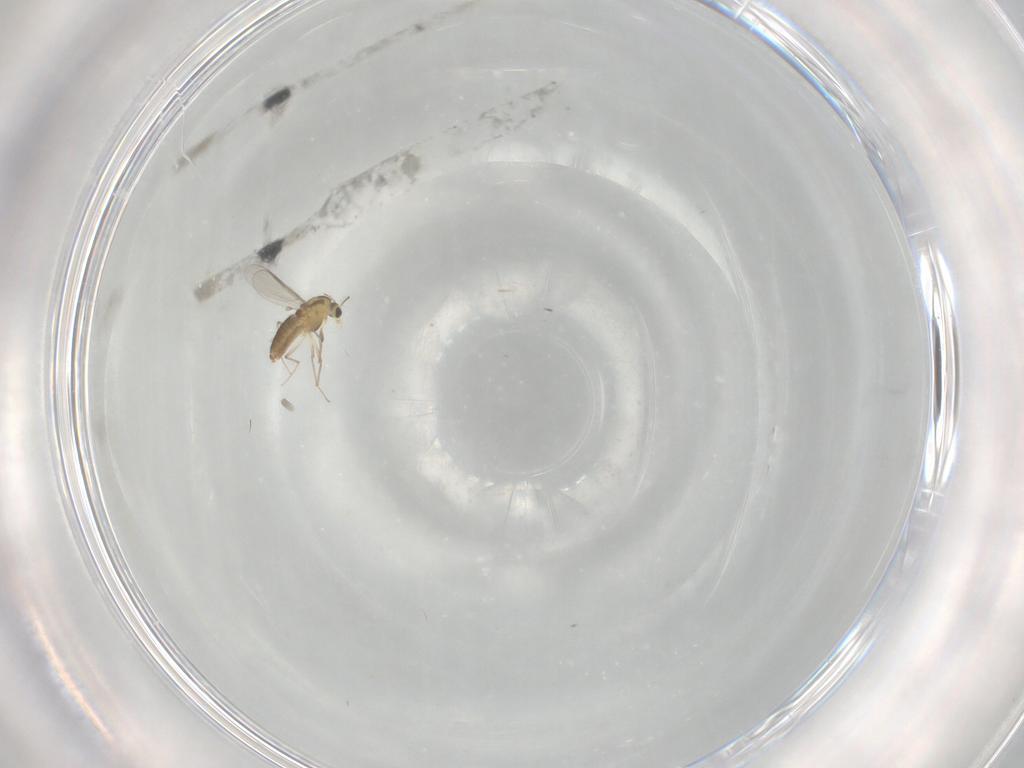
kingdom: Animalia
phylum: Arthropoda
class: Insecta
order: Diptera
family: Chironomidae
